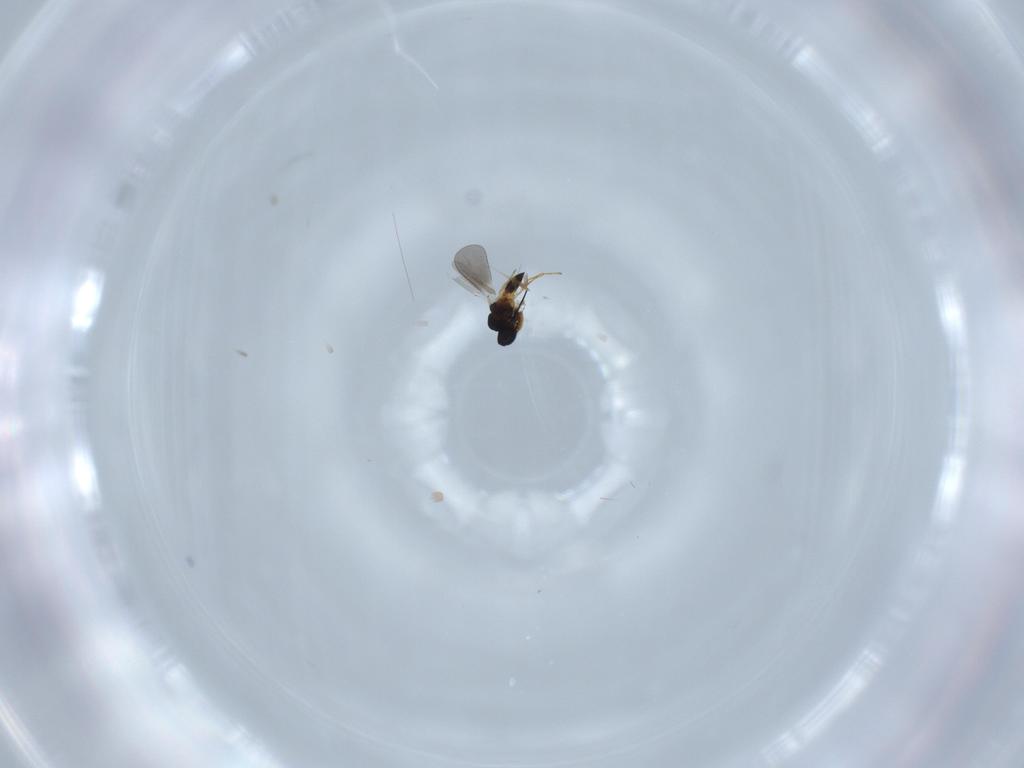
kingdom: Animalia
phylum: Arthropoda
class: Insecta
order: Hymenoptera
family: Platygastridae
